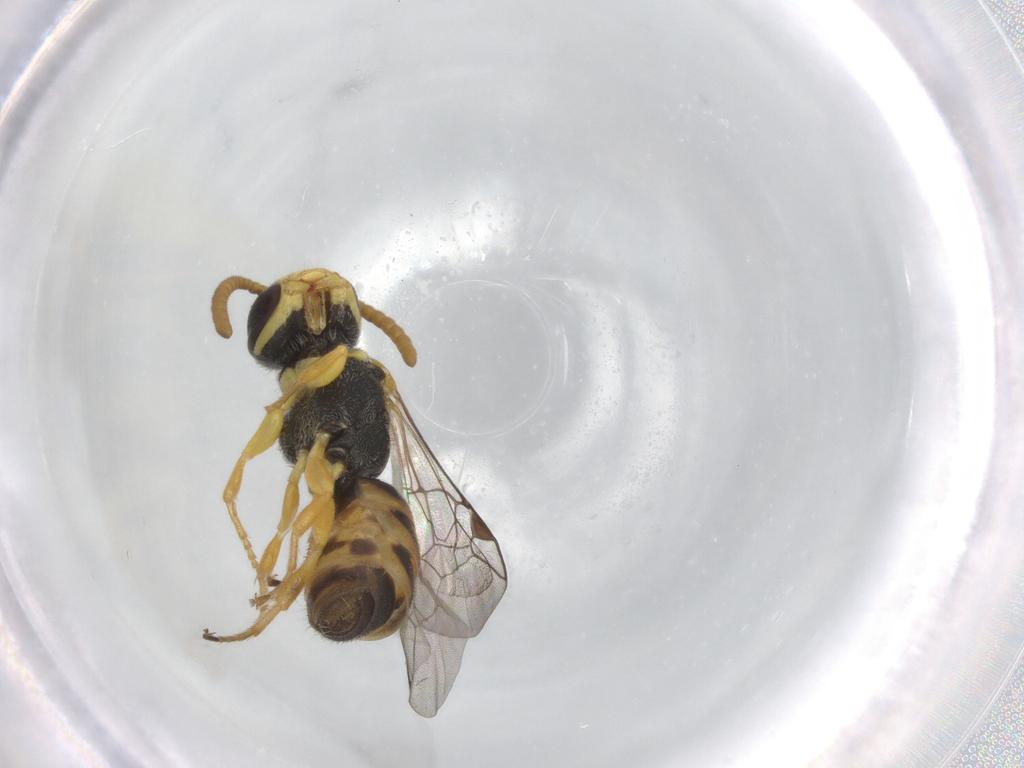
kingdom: Animalia
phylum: Arthropoda
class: Insecta
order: Hymenoptera
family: Colletidae
